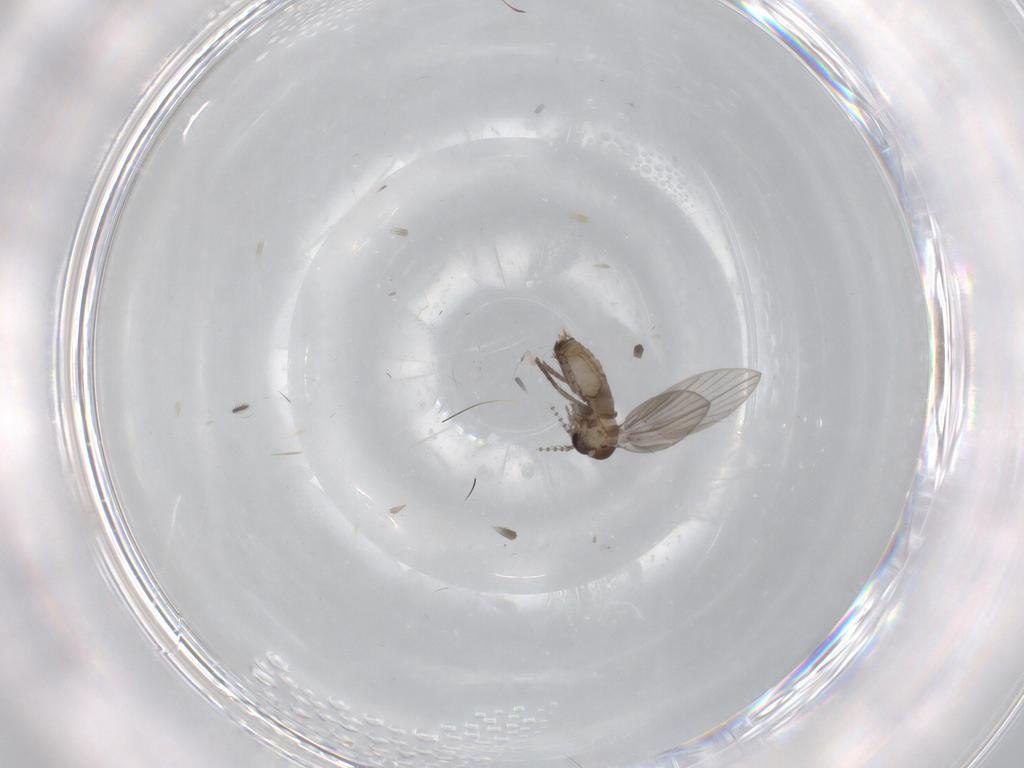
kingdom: Animalia
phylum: Arthropoda
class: Insecta
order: Diptera
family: Psychodidae
